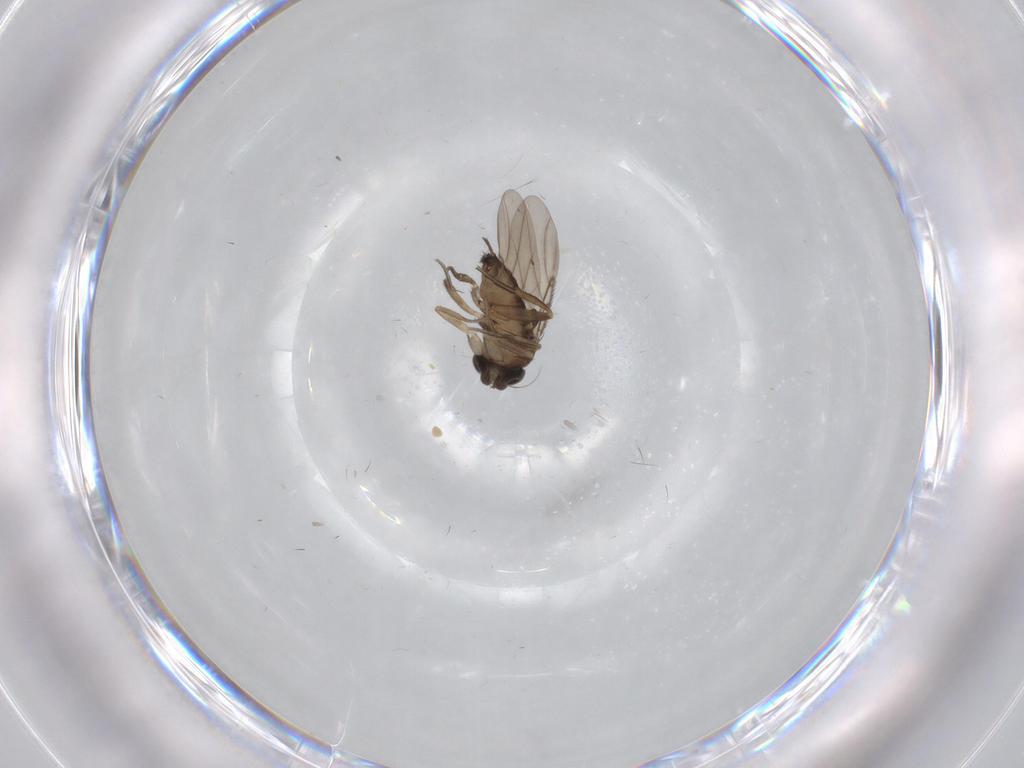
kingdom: Animalia
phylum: Arthropoda
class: Insecta
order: Diptera
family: Phoridae
